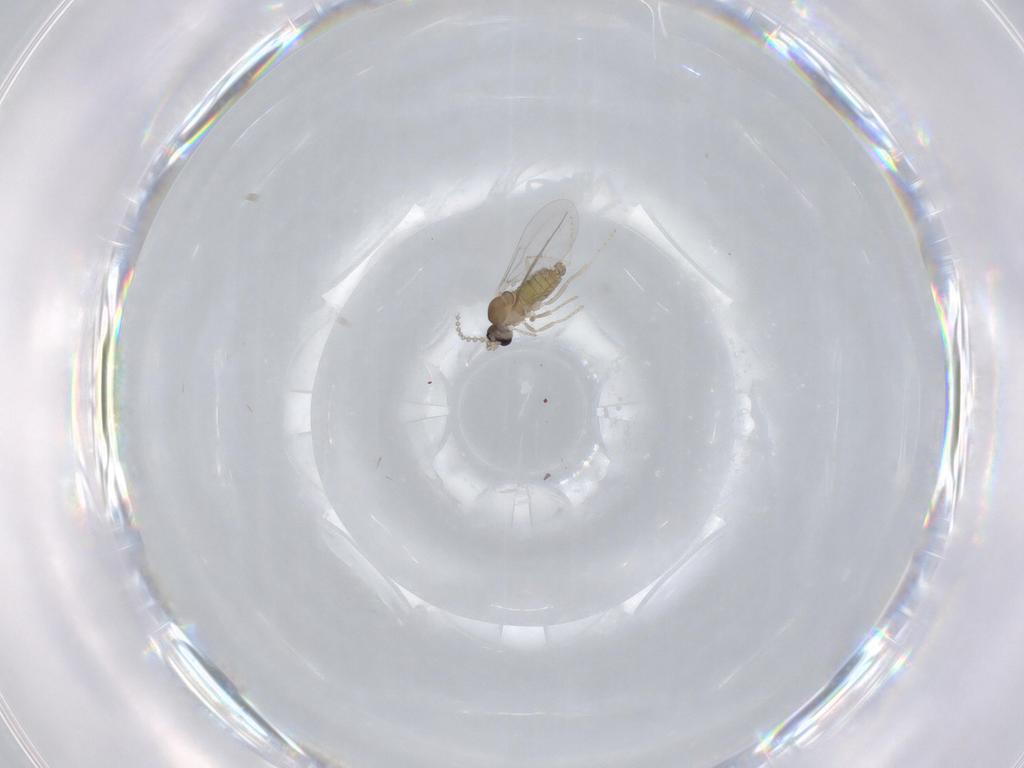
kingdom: Animalia
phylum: Arthropoda
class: Insecta
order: Diptera
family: Cecidomyiidae
